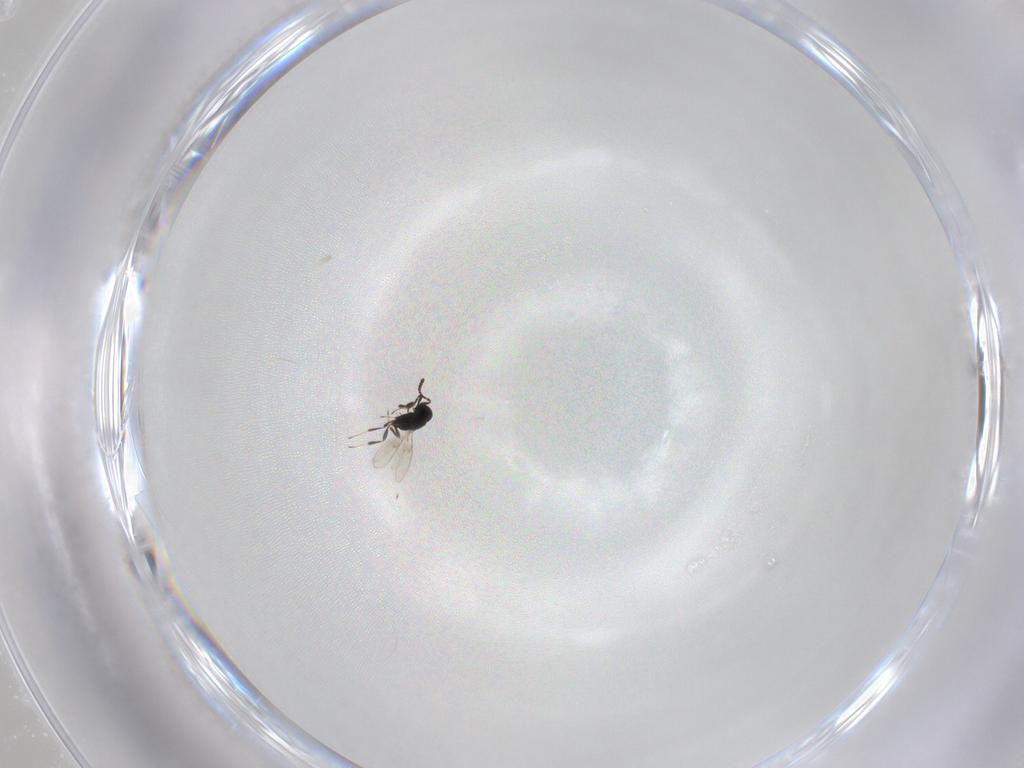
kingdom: Animalia
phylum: Arthropoda
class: Insecta
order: Hymenoptera
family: Scelionidae
